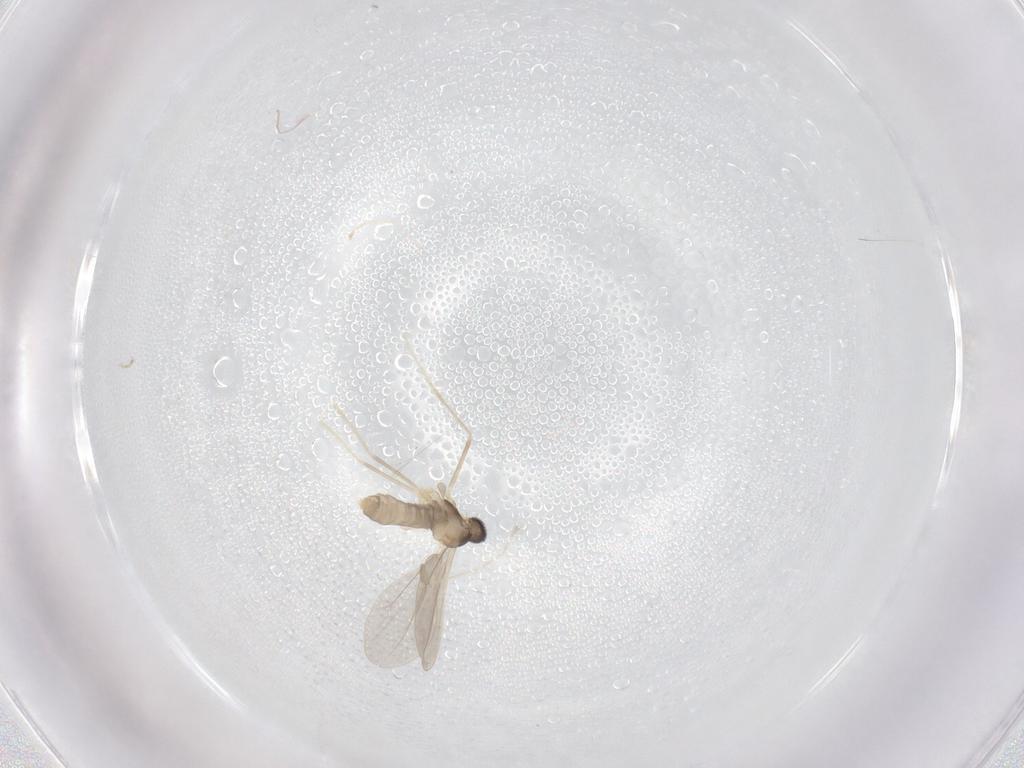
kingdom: Animalia
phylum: Arthropoda
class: Insecta
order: Diptera
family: Cecidomyiidae
